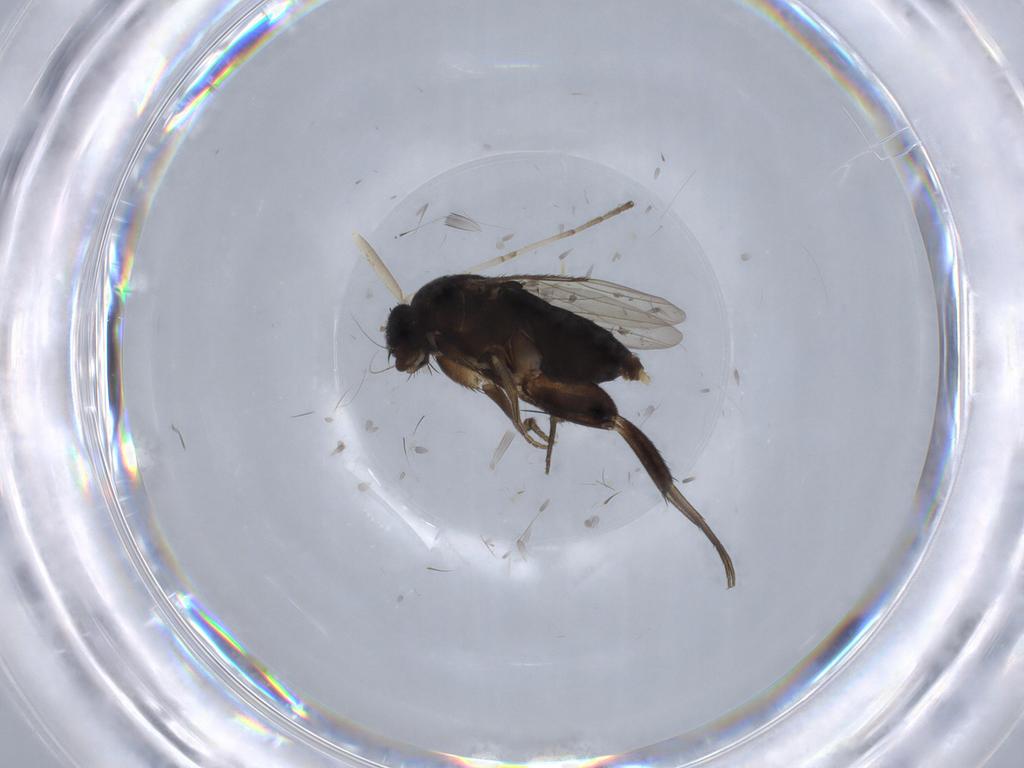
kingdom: Animalia
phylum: Arthropoda
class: Insecta
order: Diptera
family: Phoridae
